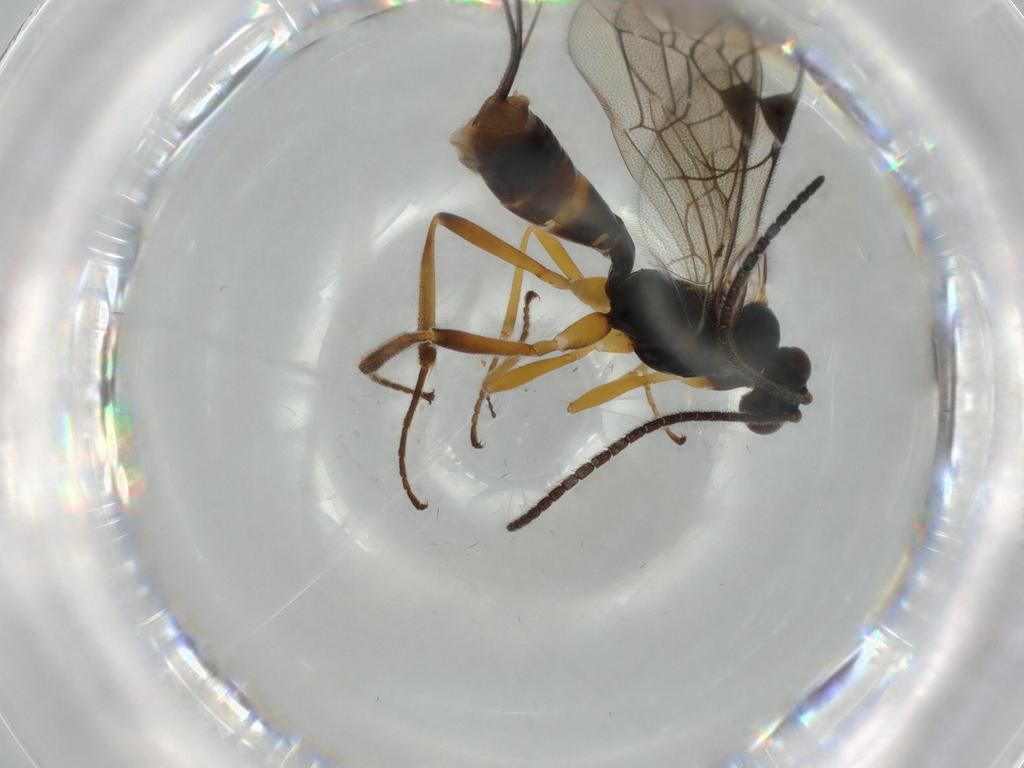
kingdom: Animalia
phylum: Arthropoda
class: Insecta
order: Hymenoptera
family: Ichneumonidae
